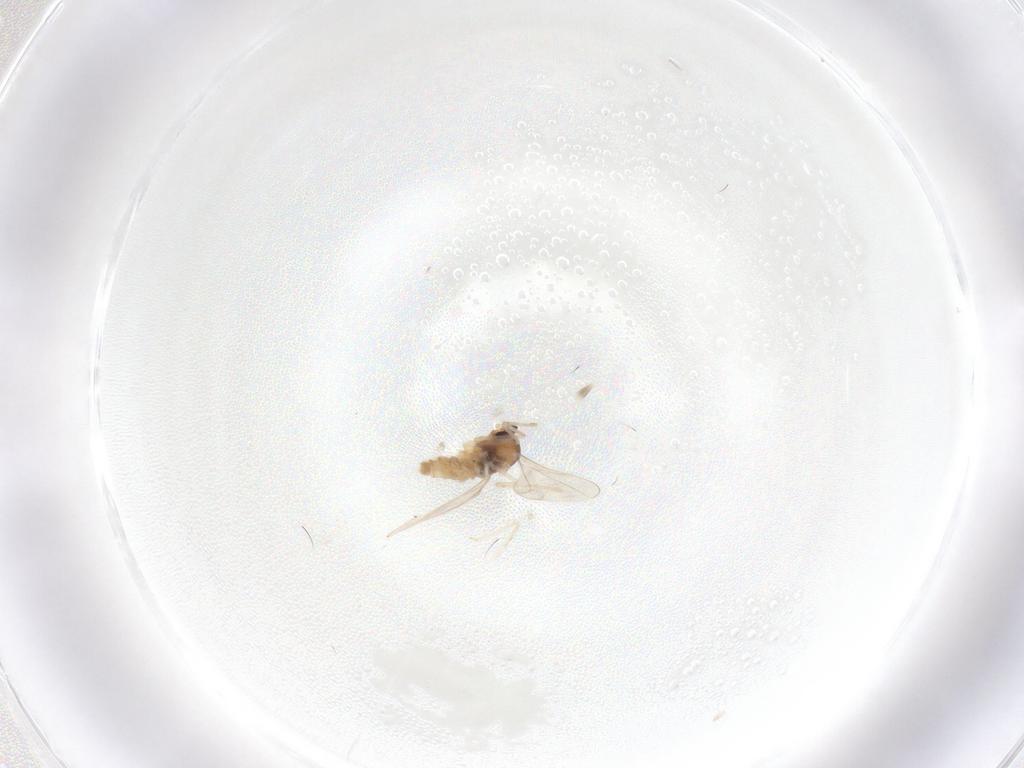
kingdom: Animalia
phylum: Arthropoda
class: Insecta
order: Diptera
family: Cecidomyiidae
